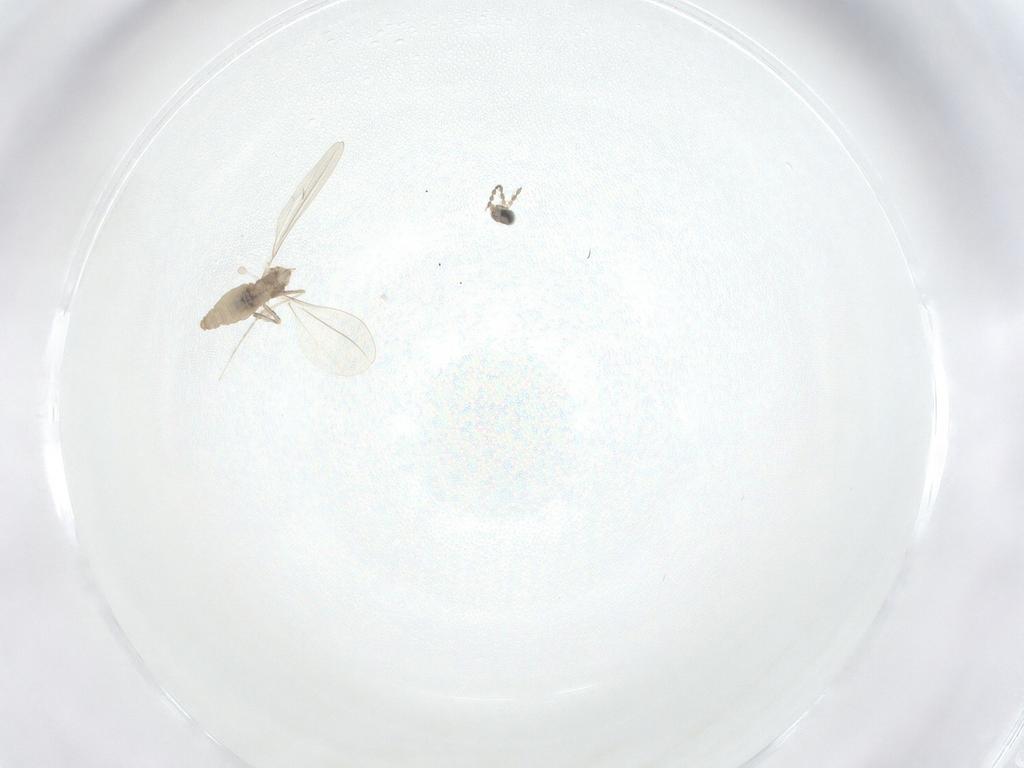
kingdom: Animalia
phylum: Arthropoda
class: Insecta
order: Diptera
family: Cecidomyiidae
